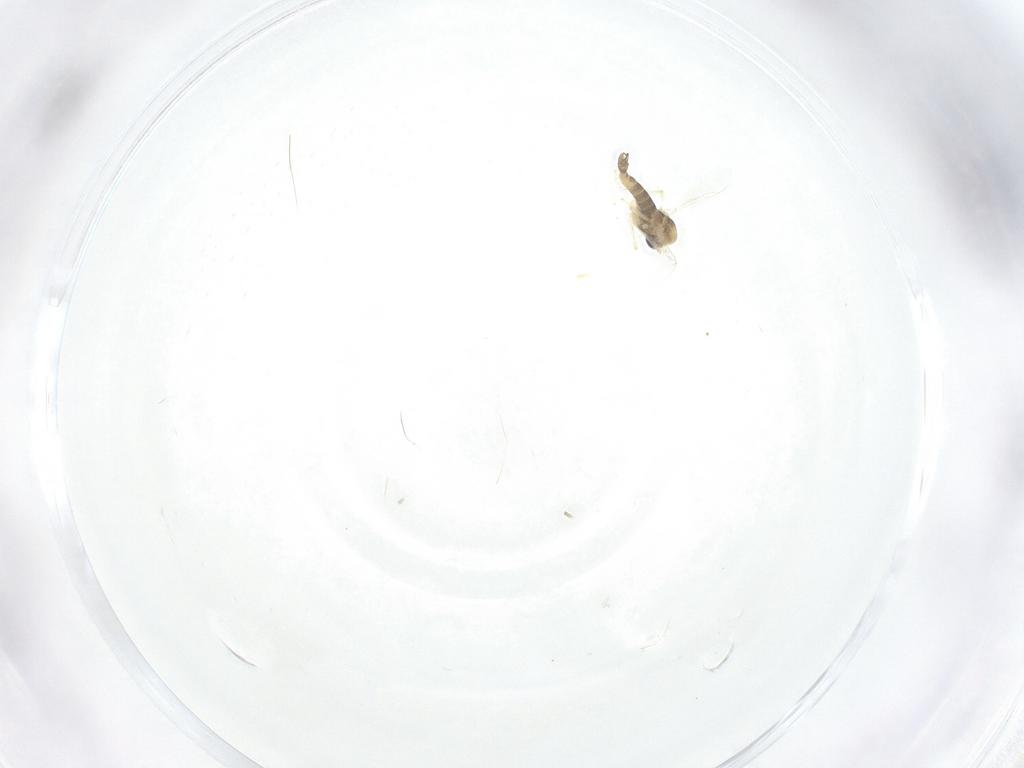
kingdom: Animalia
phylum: Arthropoda
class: Insecta
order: Diptera
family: Chironomidae
